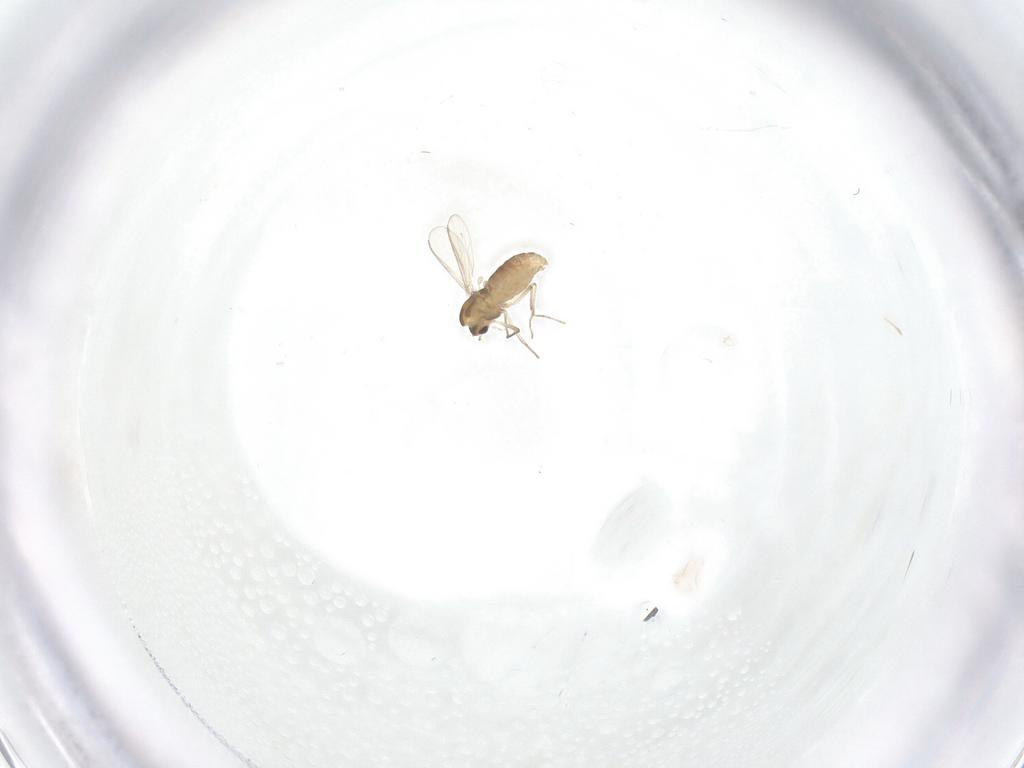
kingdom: Animalia
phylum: Arthropoda
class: Insecta
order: Diptera
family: Chironomidae
